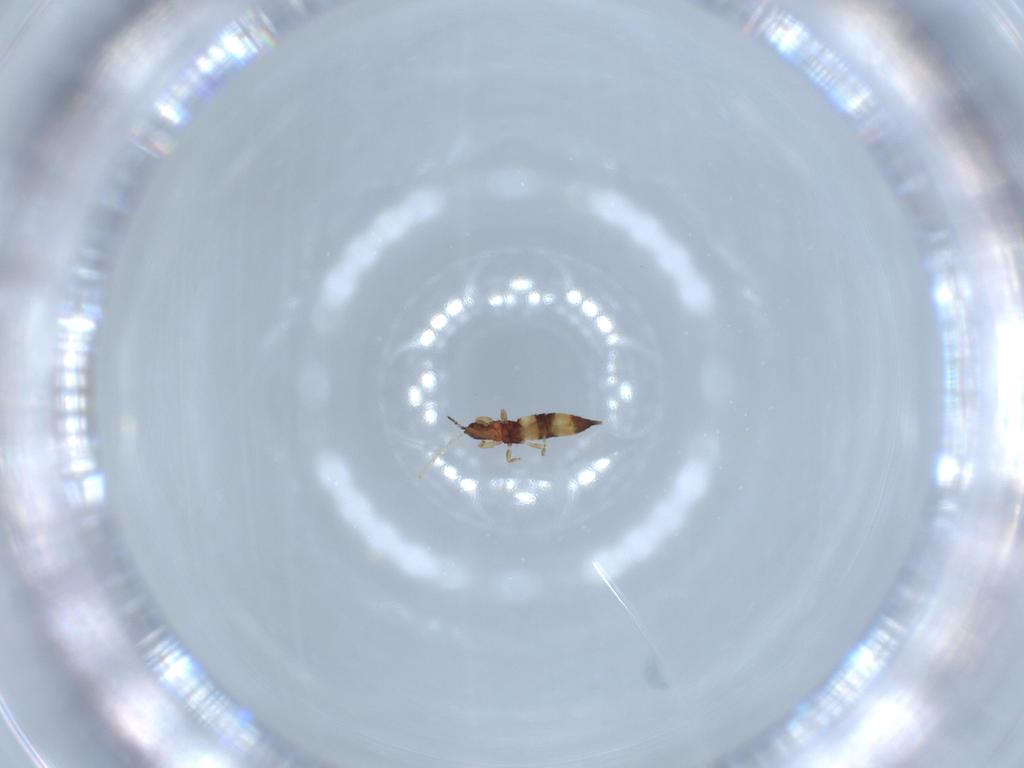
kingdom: Animalia
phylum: Arthropoda
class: Insecta
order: Thysanoptera
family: Phlaeothripidae
